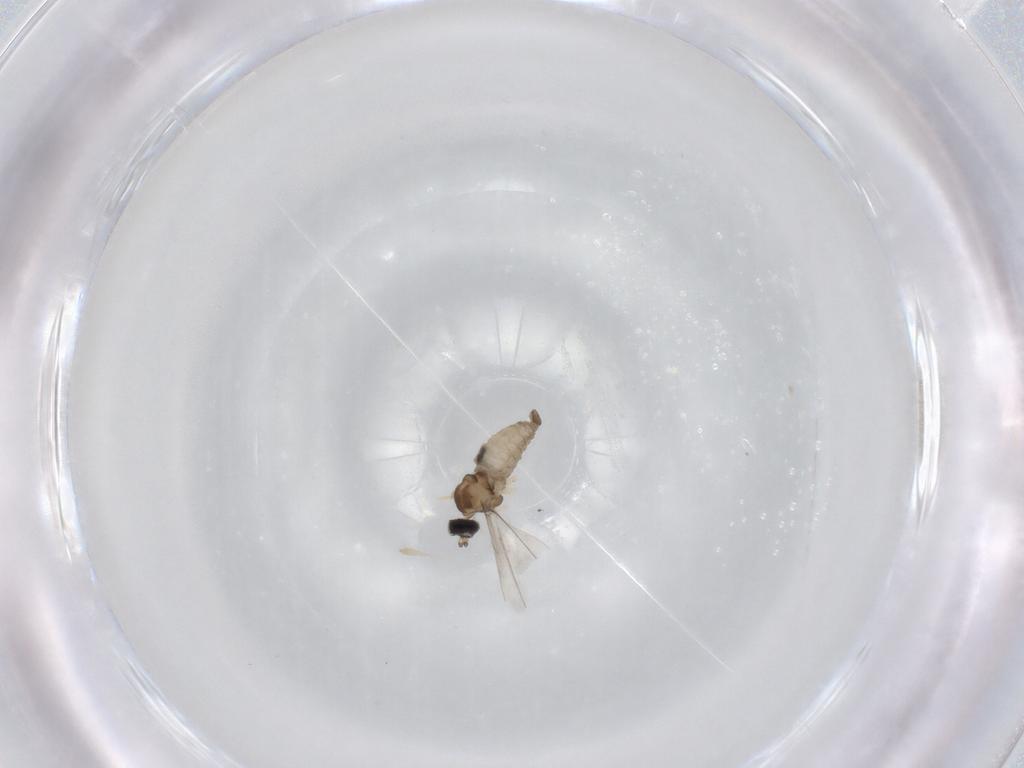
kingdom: Animalia
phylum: Arthropoda
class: Insecta
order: Diptera
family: Cecidomyiidae
